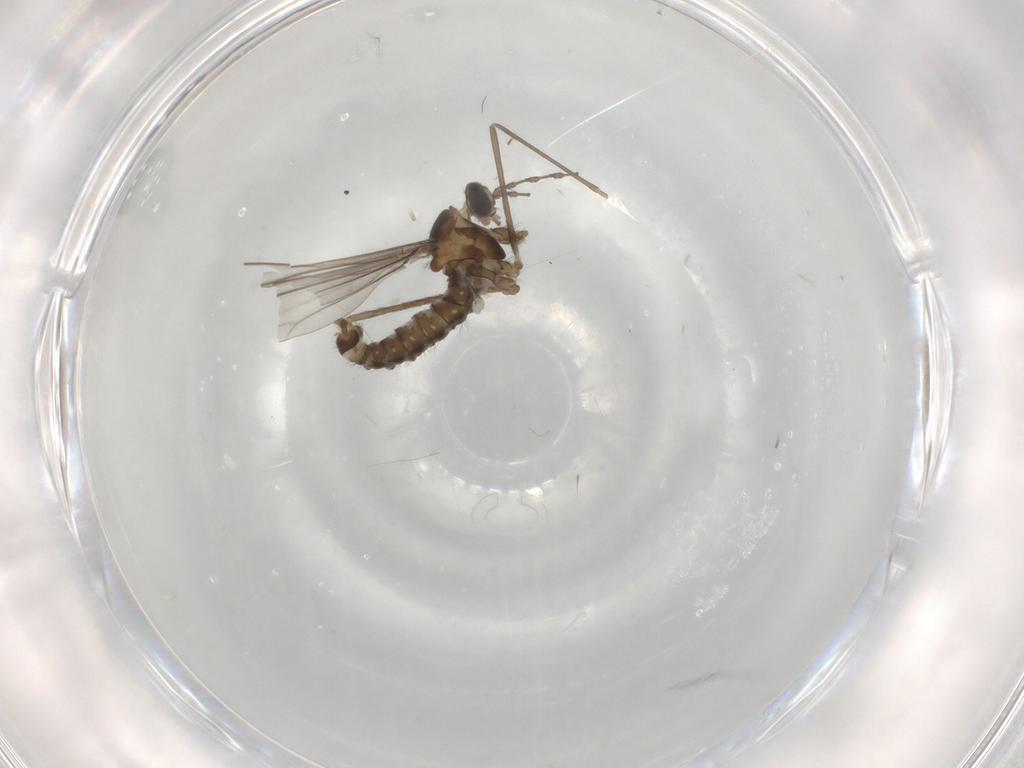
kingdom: Animalia
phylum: Arthropoda
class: Insecta
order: Diptera
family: Cecidomyiidae
